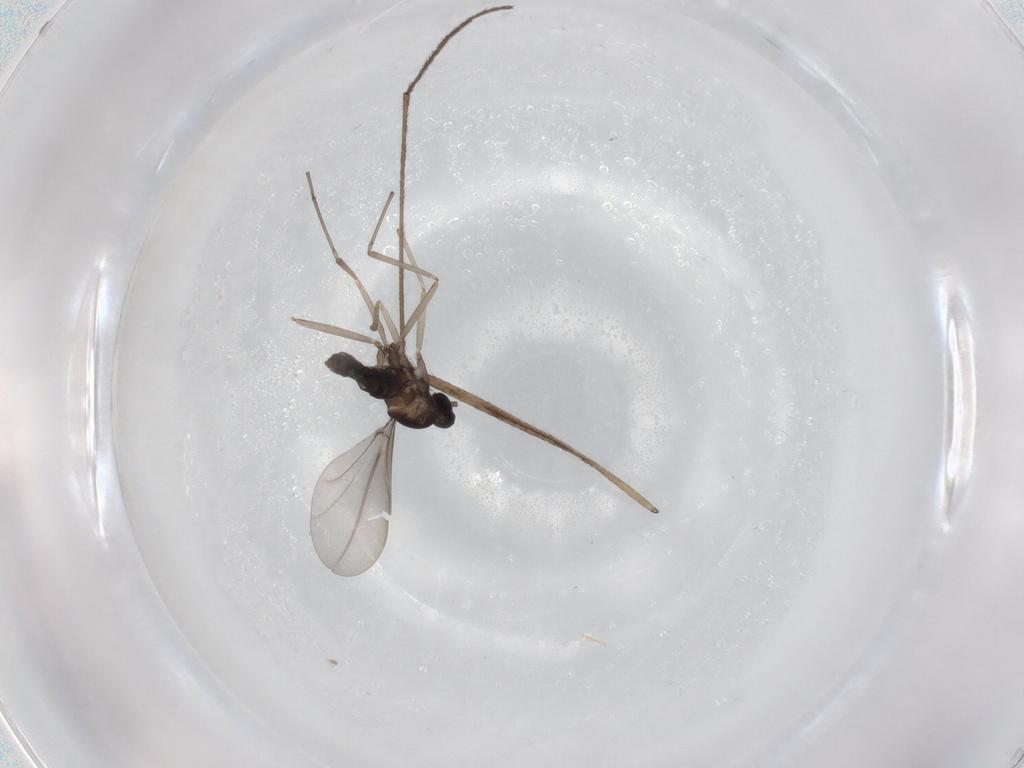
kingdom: Animalia
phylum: Arthropoda
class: Insecta
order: Diptera
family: Cecidomyiidae
